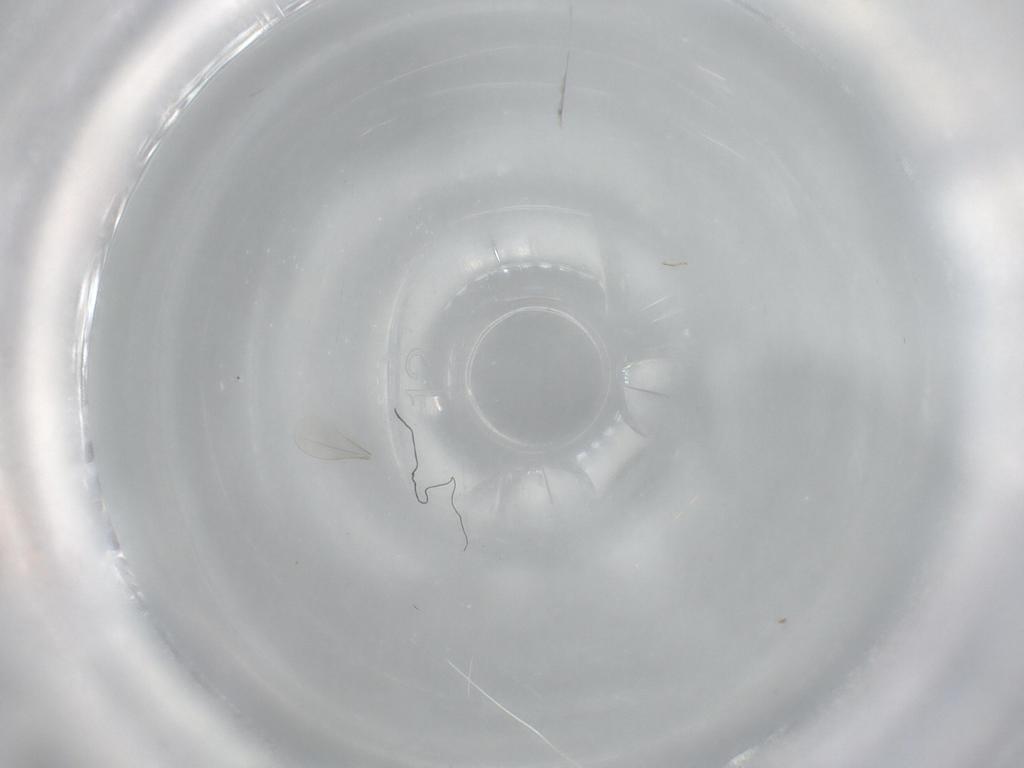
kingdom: Animalia
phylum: Arthropoda
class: Insecta
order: Diptera
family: Cecidomyiidae
